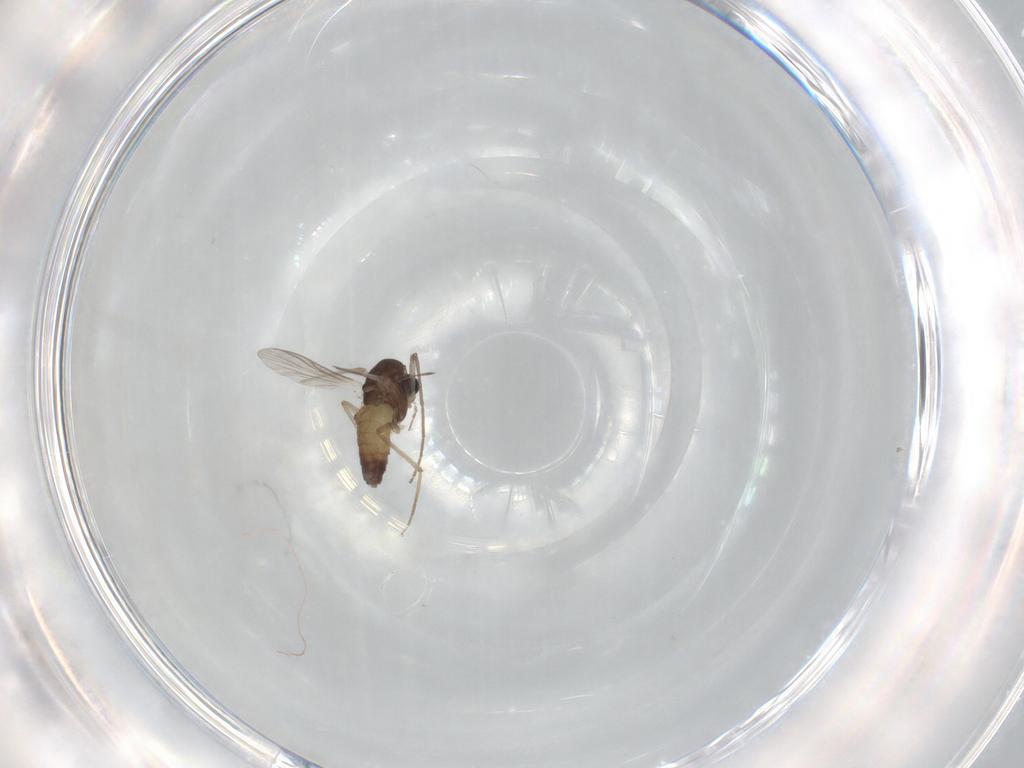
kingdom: Animalia
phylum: Arthropoda
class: Insecta
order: Diptera
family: Chironomidae
